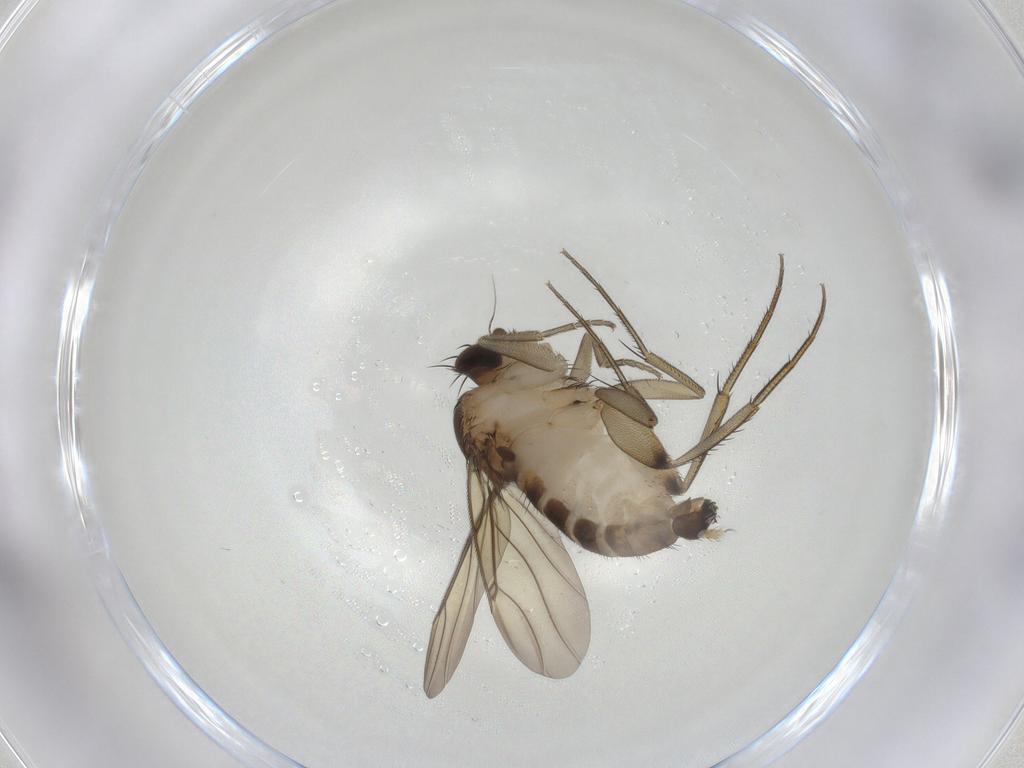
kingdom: Animalia
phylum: Arthropoda
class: Insecta
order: Diptera
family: Phoridae
